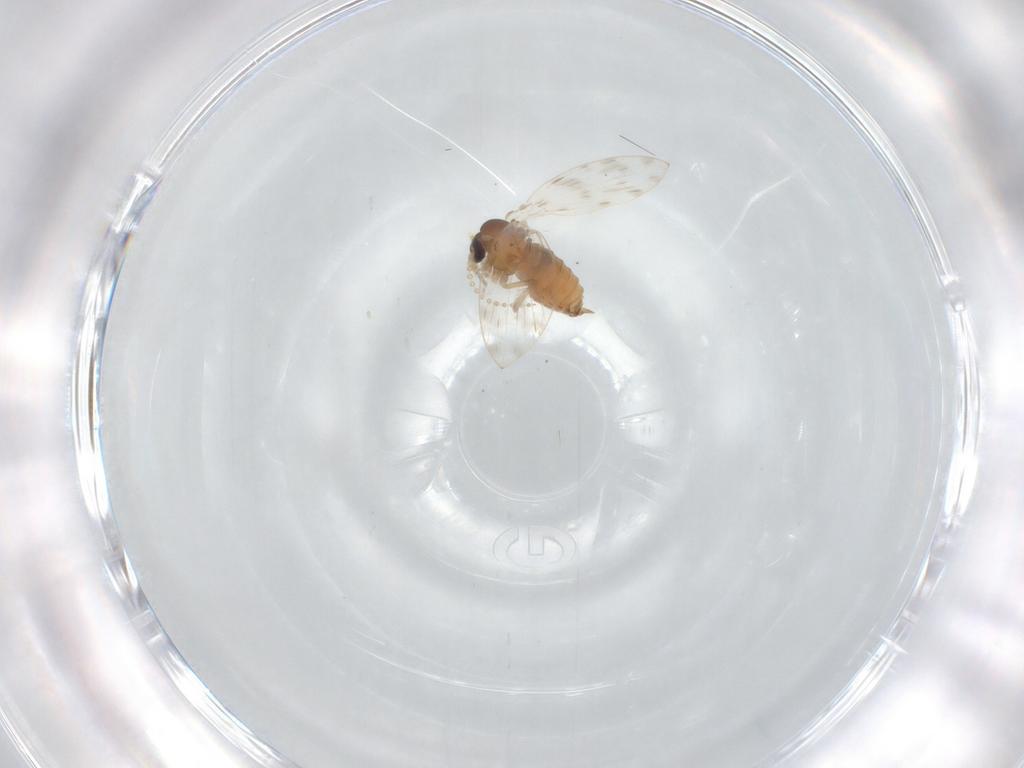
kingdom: Animalia
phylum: Arthropoda
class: Insecta
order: Diptera
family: Psychodidae
